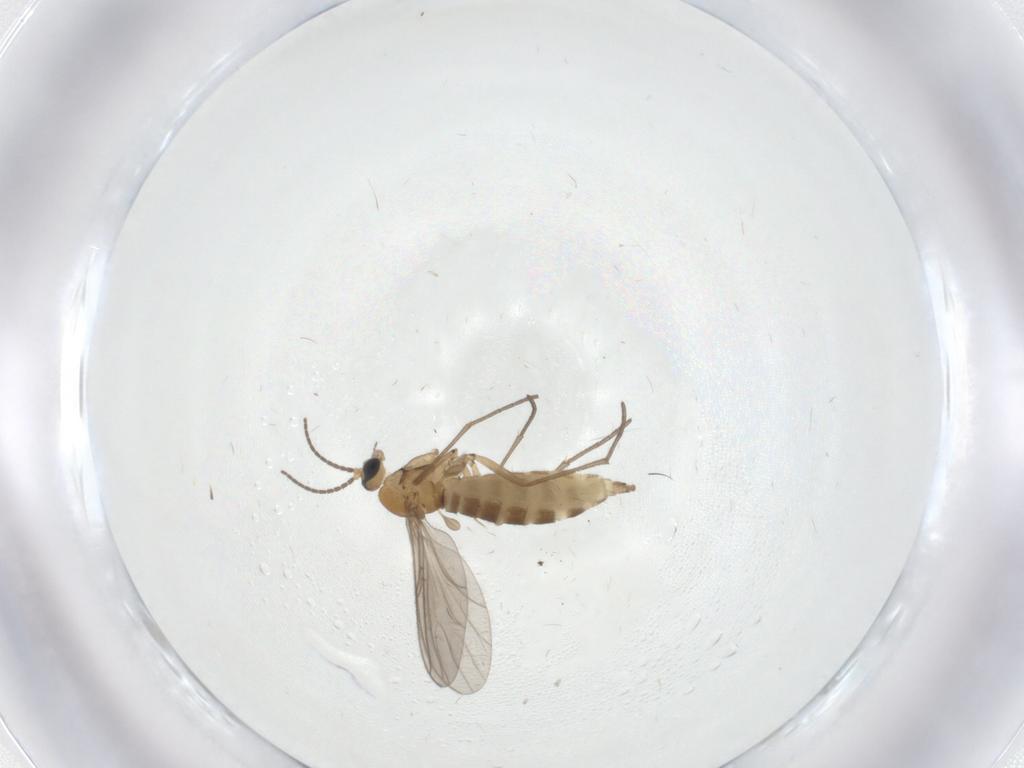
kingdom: Animalia
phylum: Arthropoda
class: Insecta
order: Diptera
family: Sciaridae
